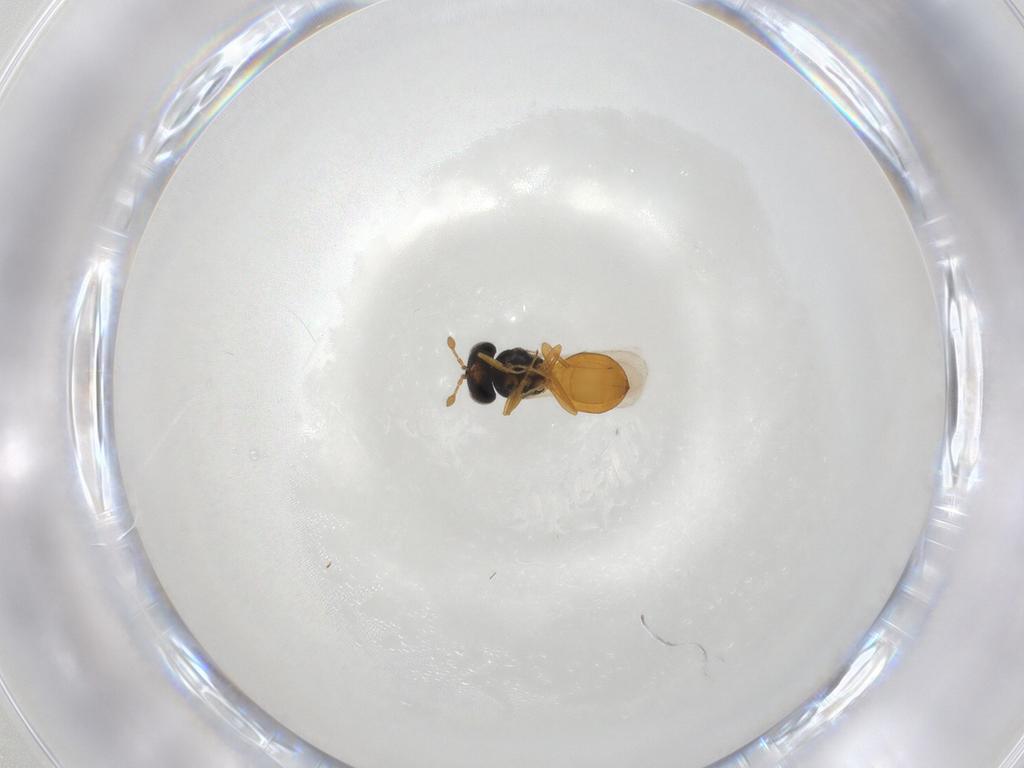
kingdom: Animalia
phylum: Arthropoda
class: Insecta
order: Hymenoptera
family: Scelionidae
